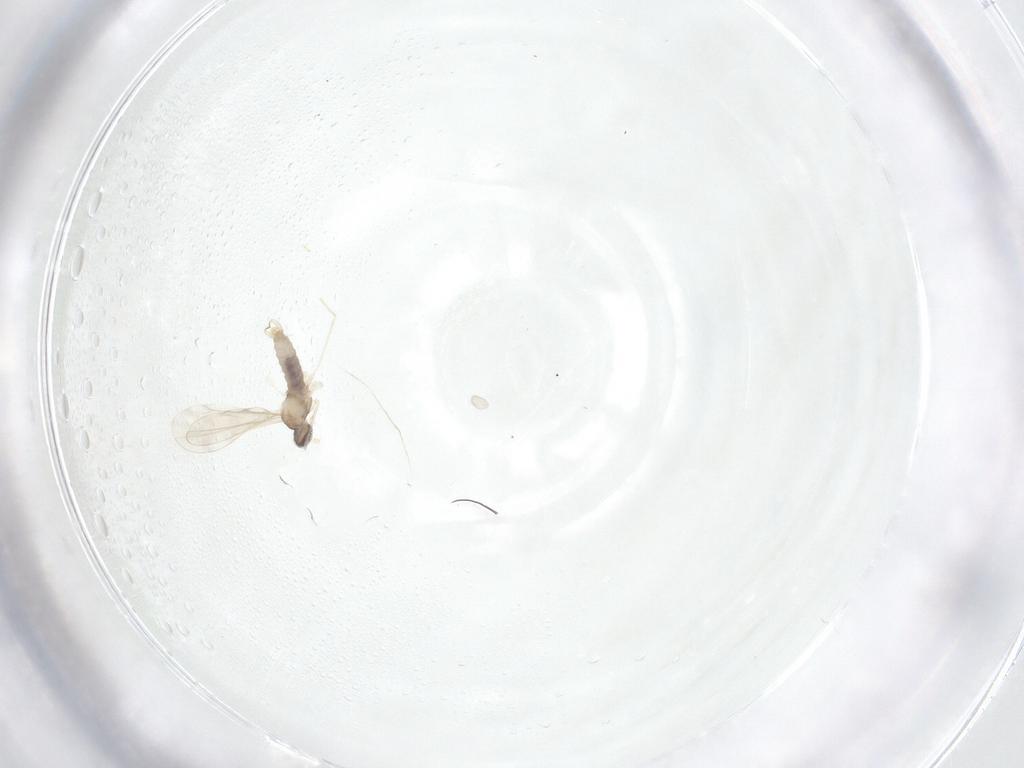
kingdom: Animalia
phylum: Arthropoda
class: Insecta
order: Diptera
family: Cecidomyiidae
